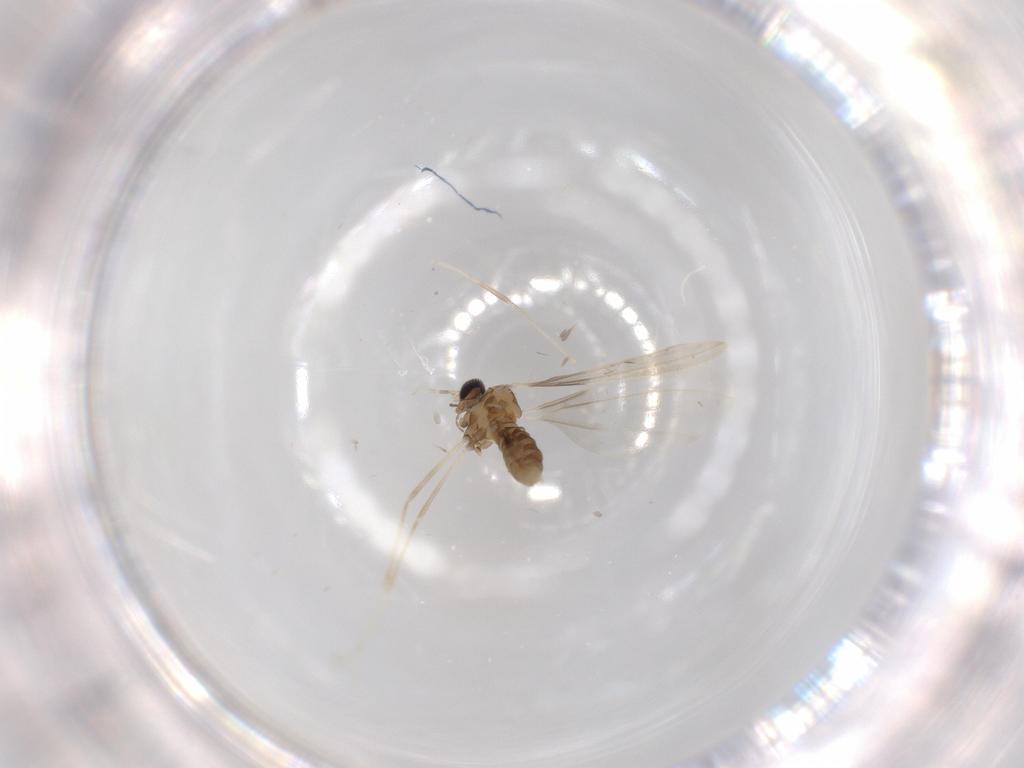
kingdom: Animalia
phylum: Arthropoda
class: Insecta
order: Diptera
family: Cecidomyiidae
